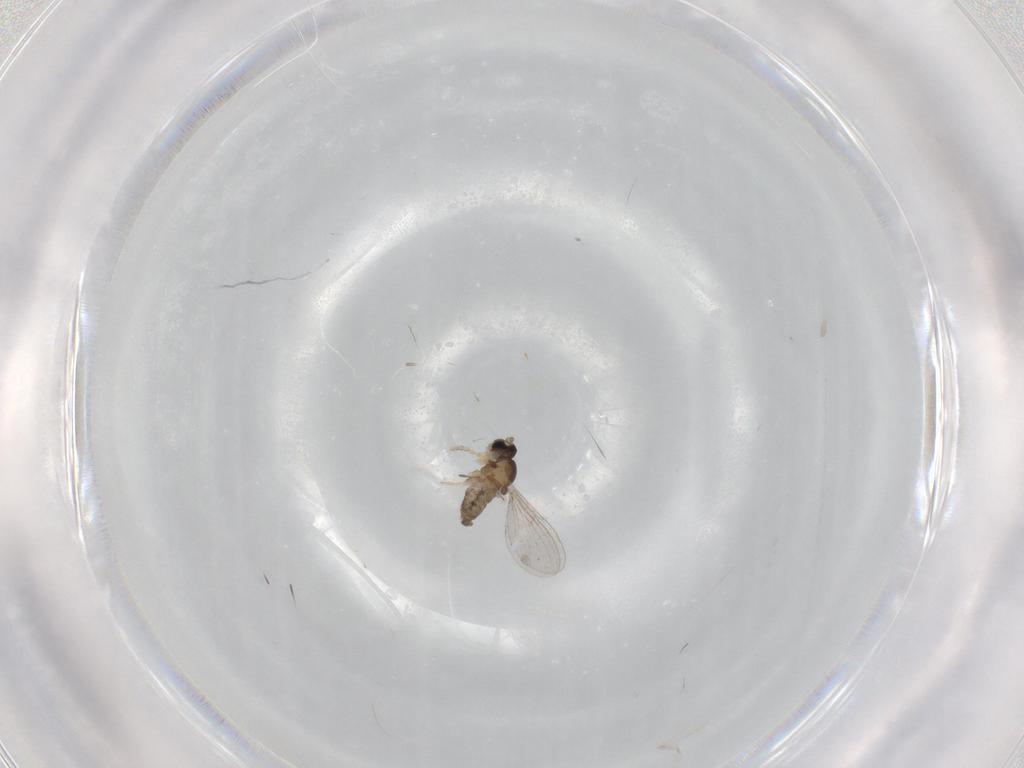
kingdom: Animalia
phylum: Arthropoda
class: Insecta
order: Diptera
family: Cecidomyiidae
